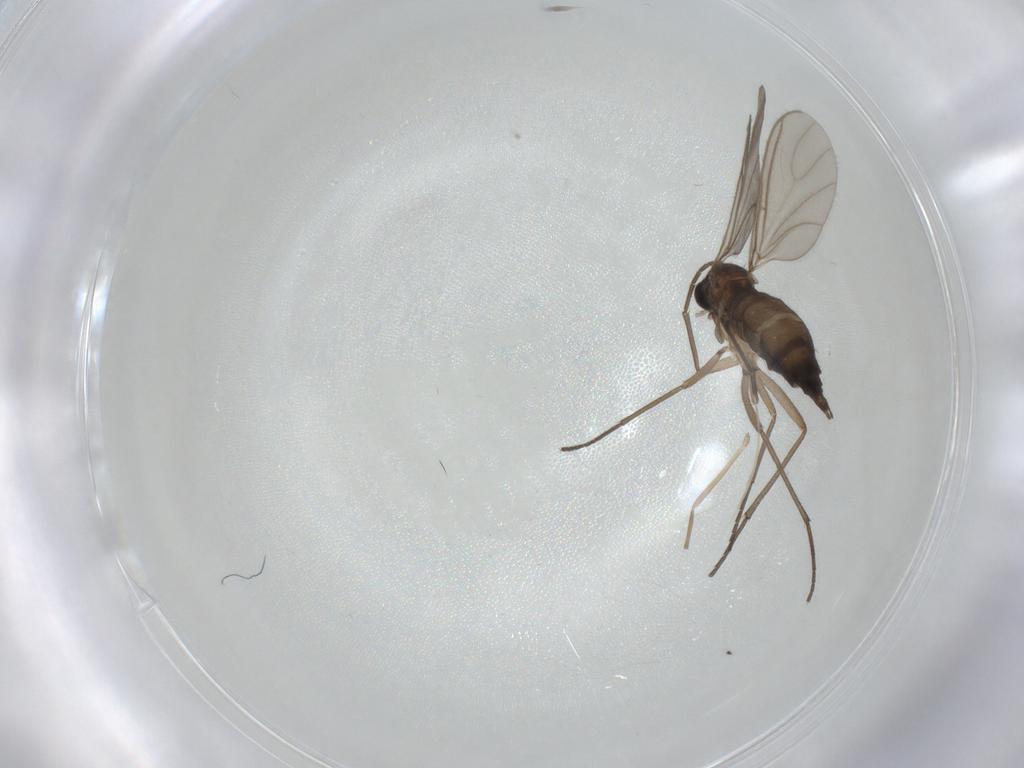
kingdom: Animalia
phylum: Arthropoda
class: Insecta
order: Diptera
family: Sciaridae
